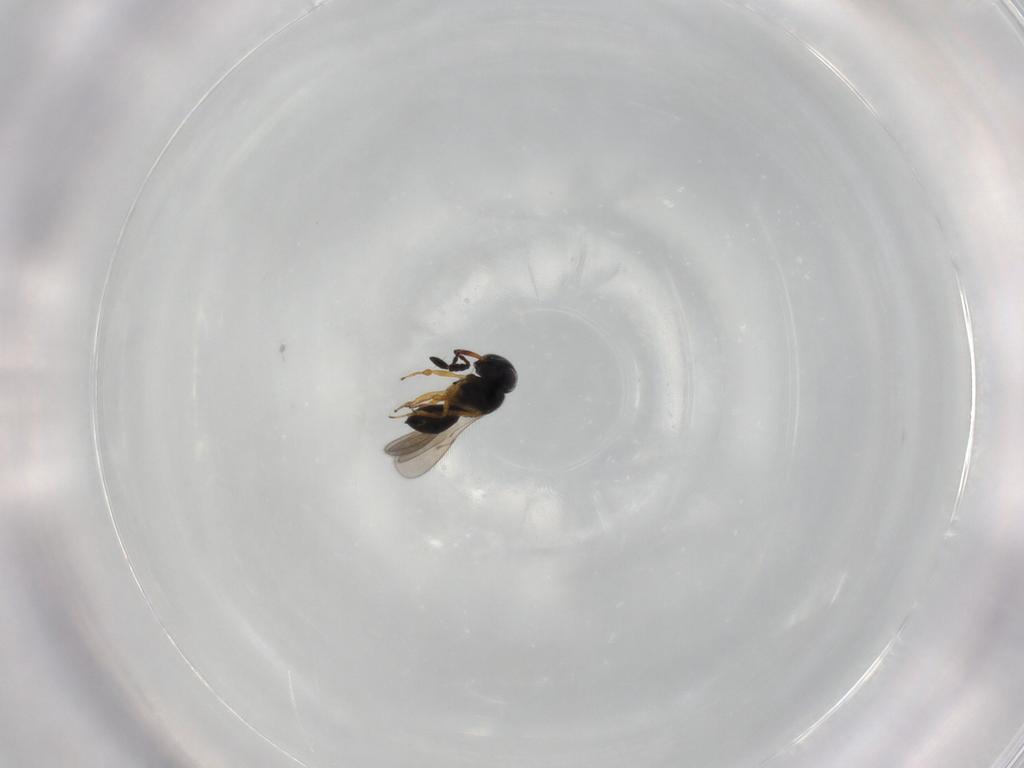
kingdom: Animalia
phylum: Arthropoda
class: Insecta
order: Hymenoptera
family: Scelionidae
